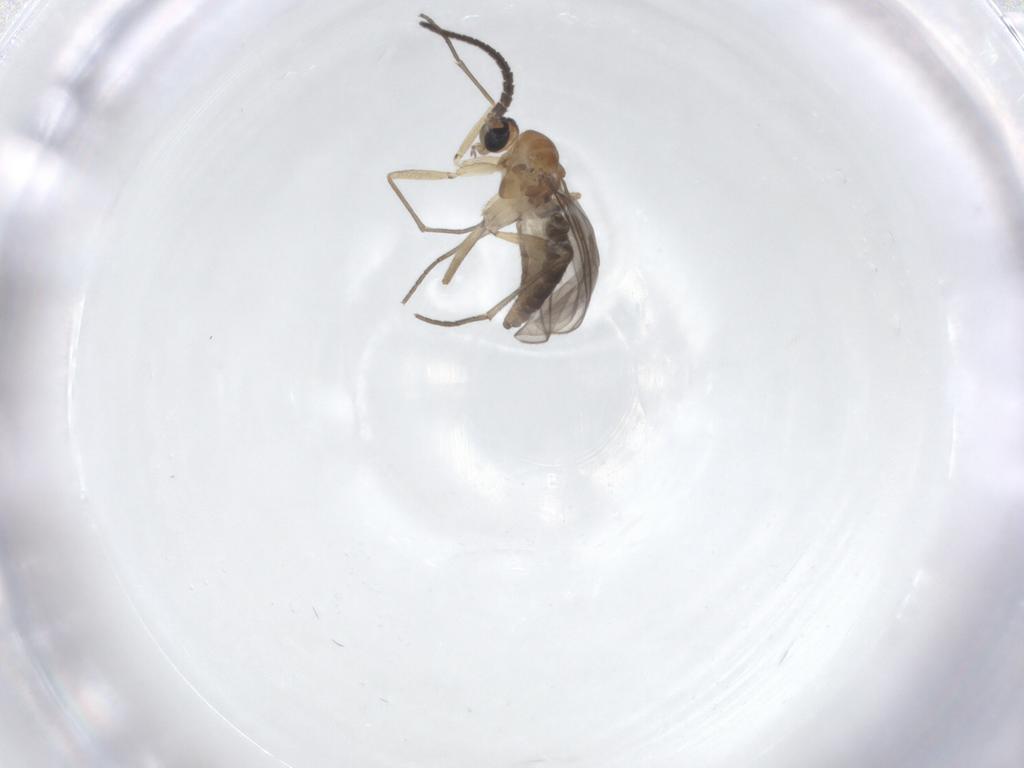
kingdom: Animalia
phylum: Arthropoda
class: Insecta
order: Diptera
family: Sciaridae
